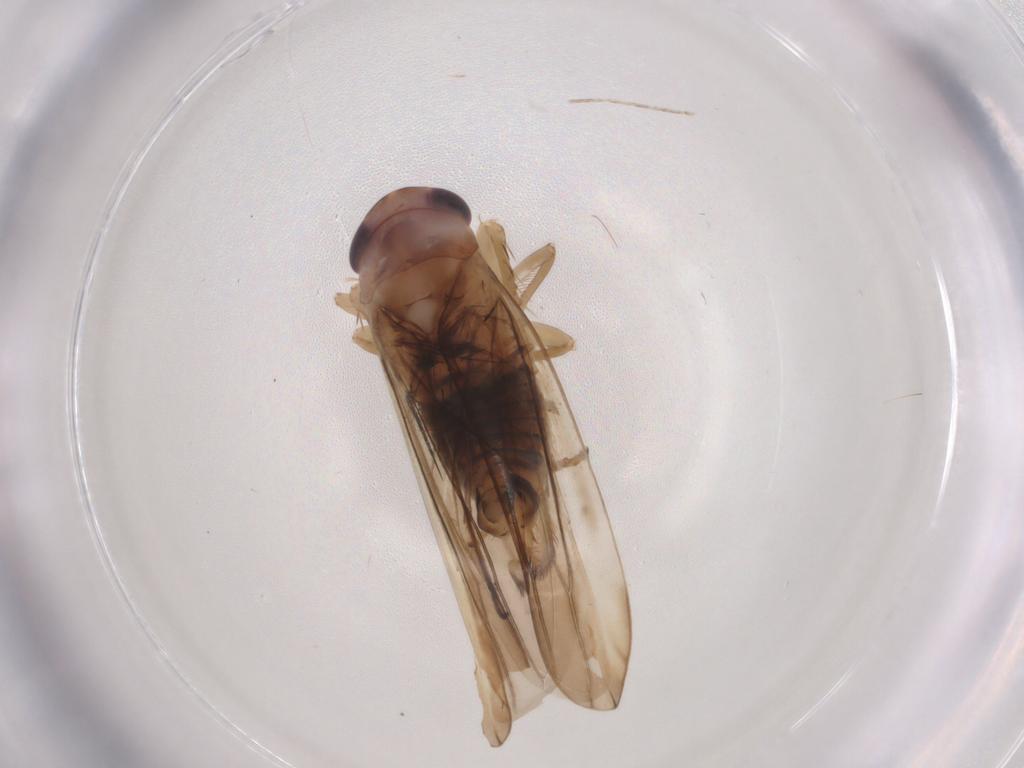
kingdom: Animalia
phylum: Arthropoda
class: Insecta
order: Hemiptera
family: Cicadellidae
